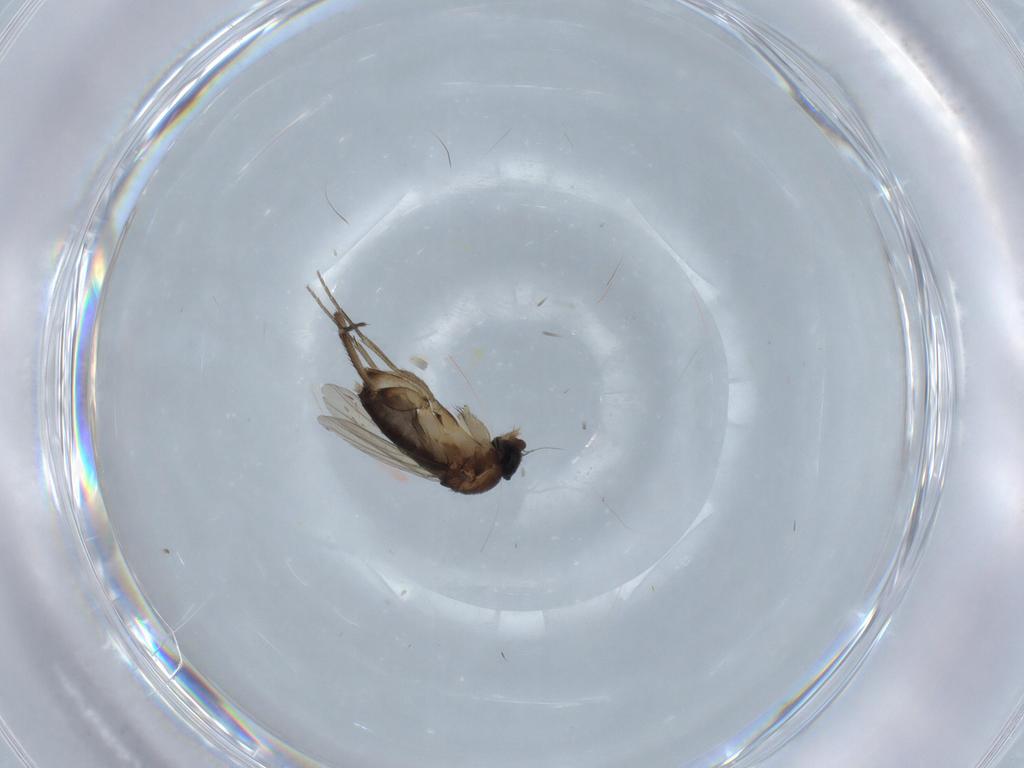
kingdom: Animalia
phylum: Arthropoda
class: Insecta
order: Diptera
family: Phoridae
